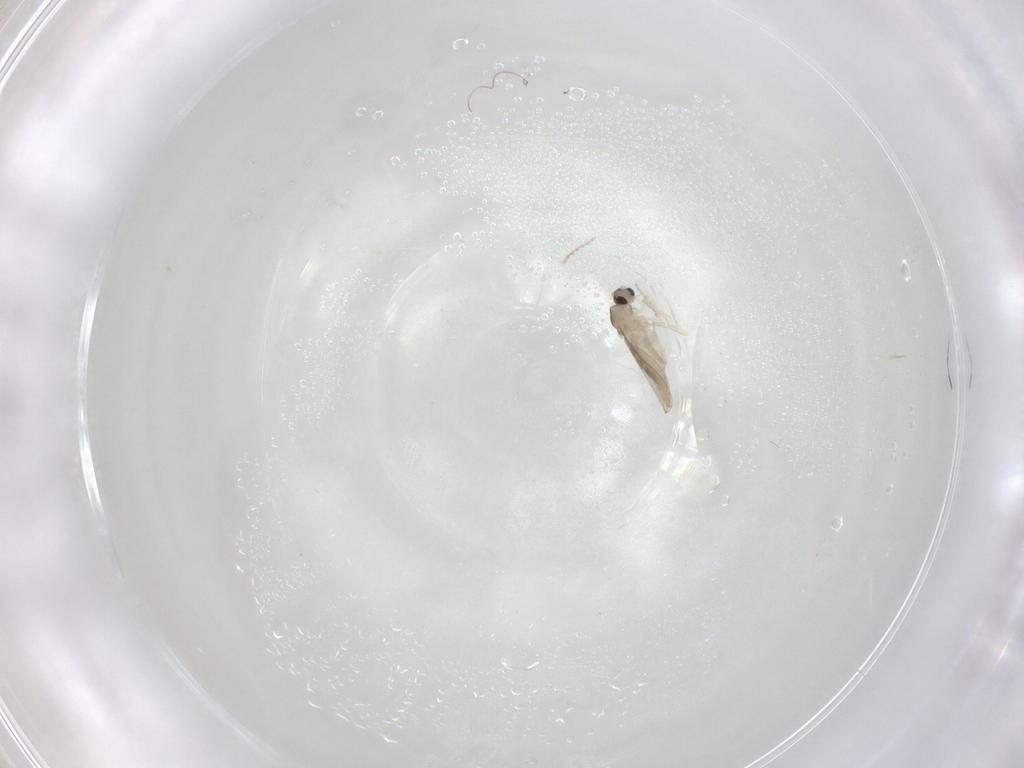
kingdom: Animalia
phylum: Arthropoda
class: Insecta
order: Diptera
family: Cecidomyiidae
